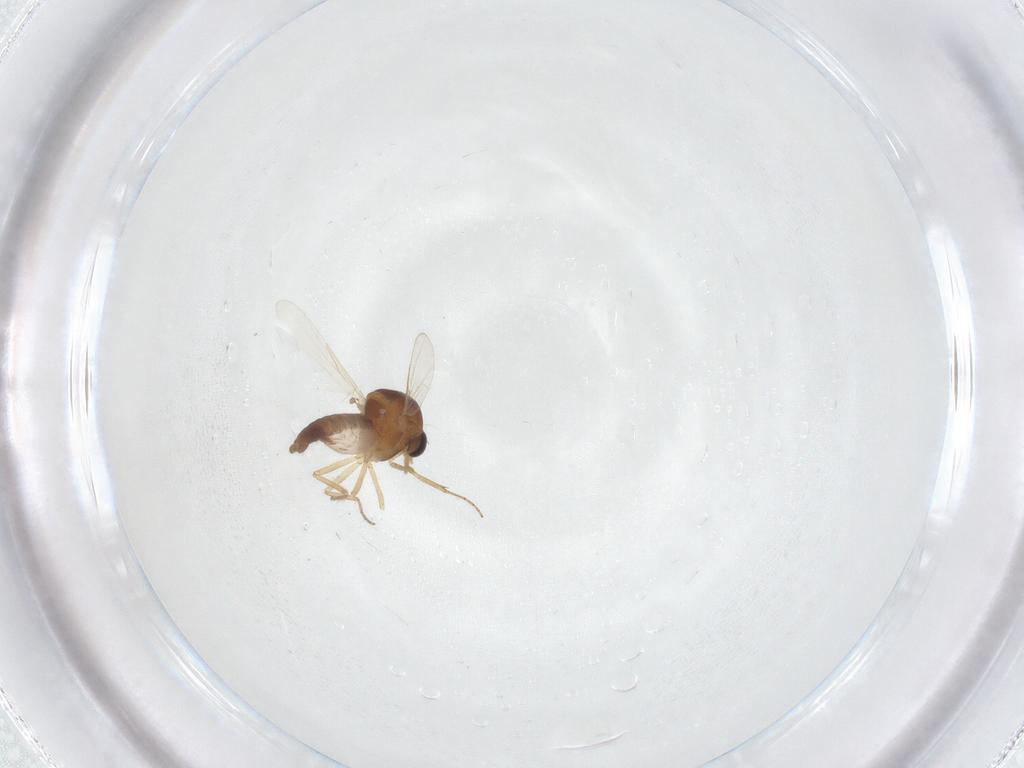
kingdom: Animalia
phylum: Arthropoda
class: Insecta
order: Diptera
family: Ceratopogonidae
